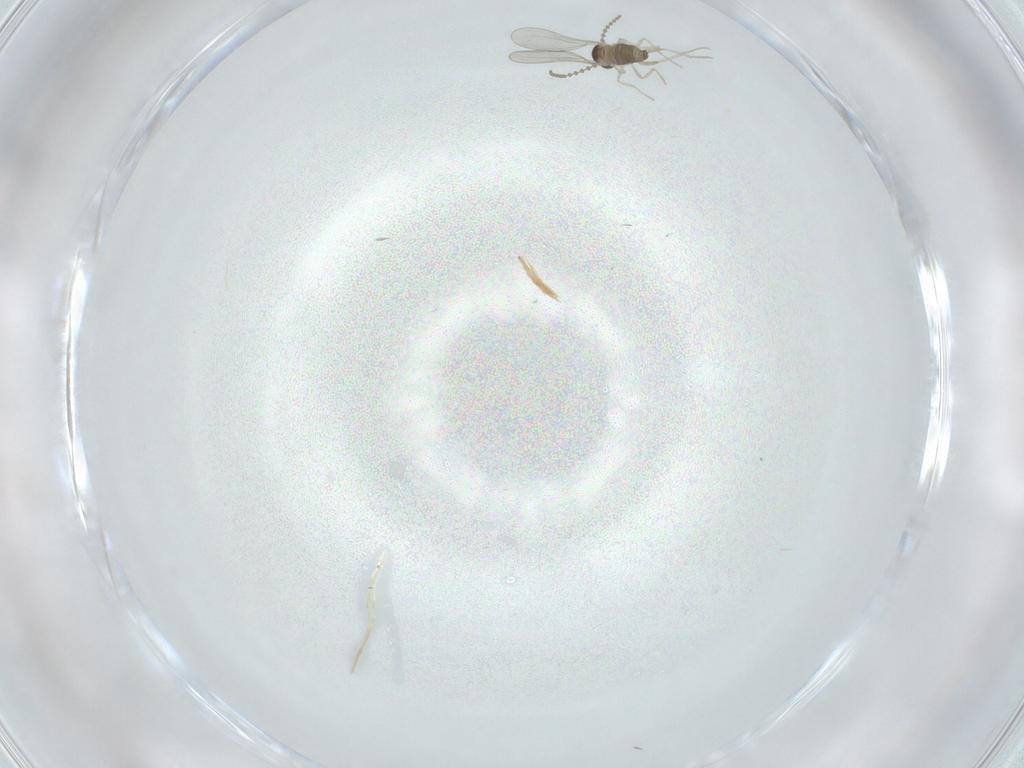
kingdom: Animalia
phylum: Arthropoda
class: Insecta
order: Diptera
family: Cecidomyiidae
